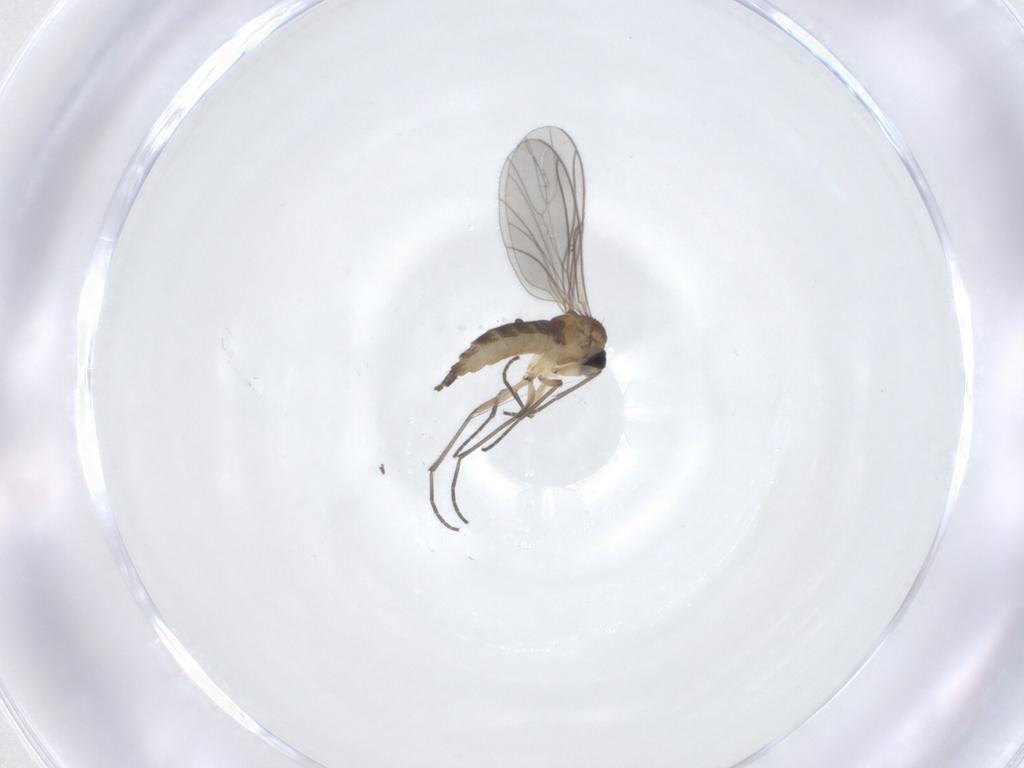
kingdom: Animalia
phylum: Arthropoda
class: Insecta
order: Diptera
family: Sciaridae
